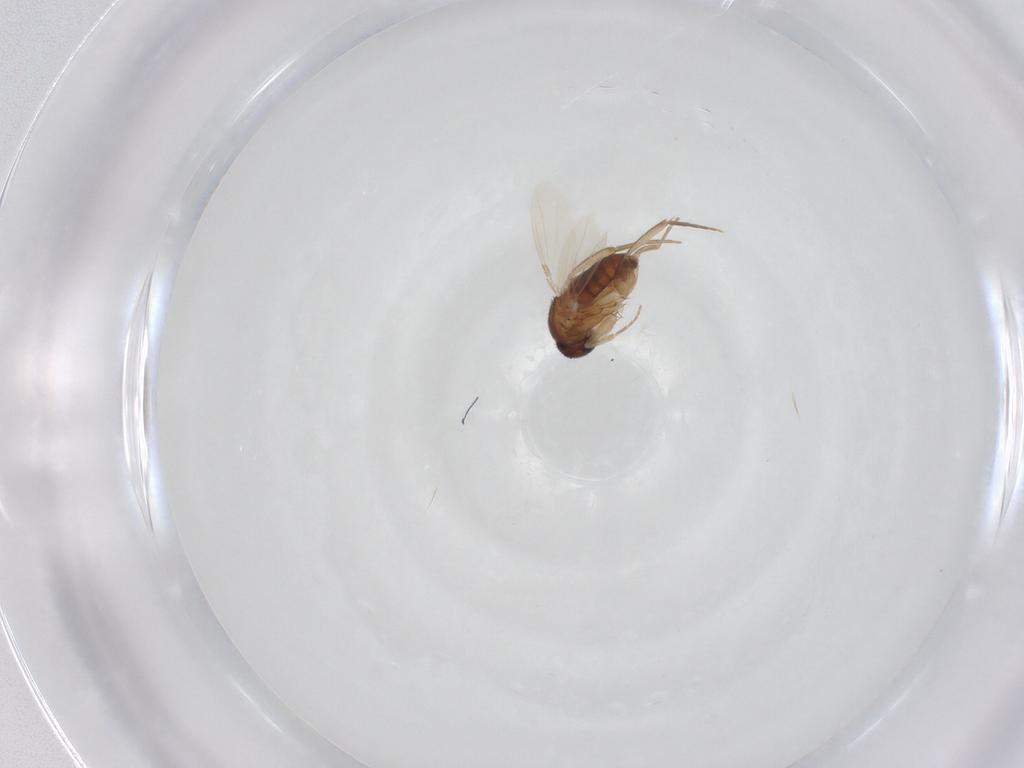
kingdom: Animalia
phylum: Arthropoda
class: Insecta
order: Diptera
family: Phoridae
